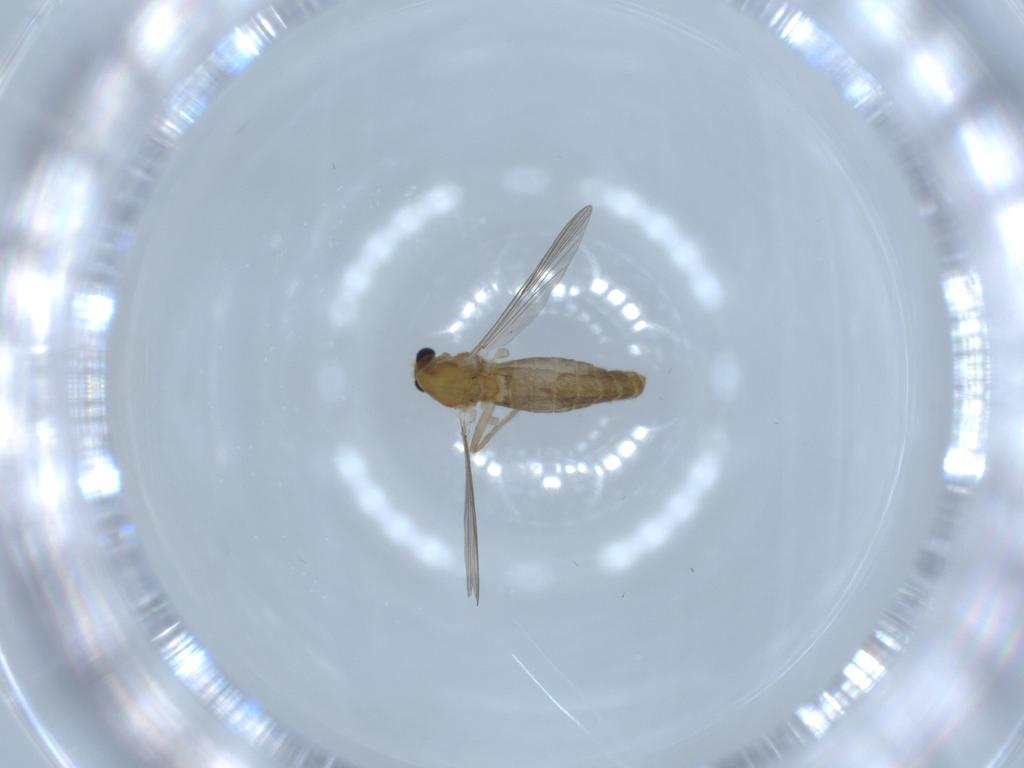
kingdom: Animalia
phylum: Arthropoda
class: Insecta
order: Diptera
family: Chironomidae
